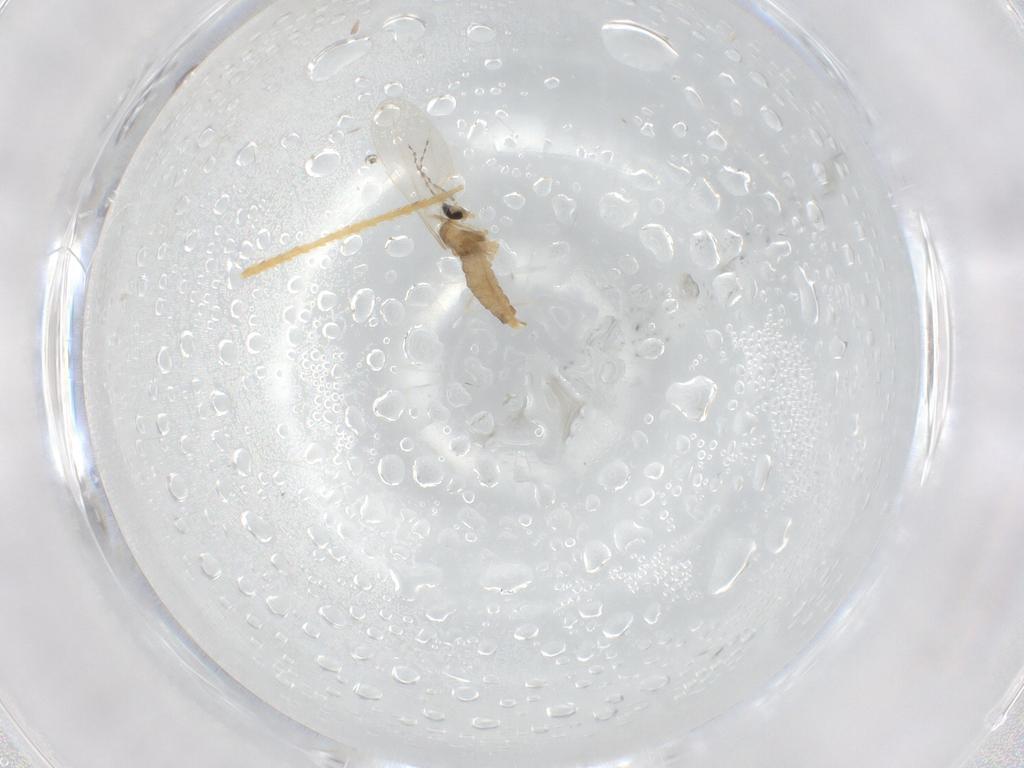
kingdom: Animalia
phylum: Arthropoda
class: Insecta
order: Diptera
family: Cecidomyiidae
